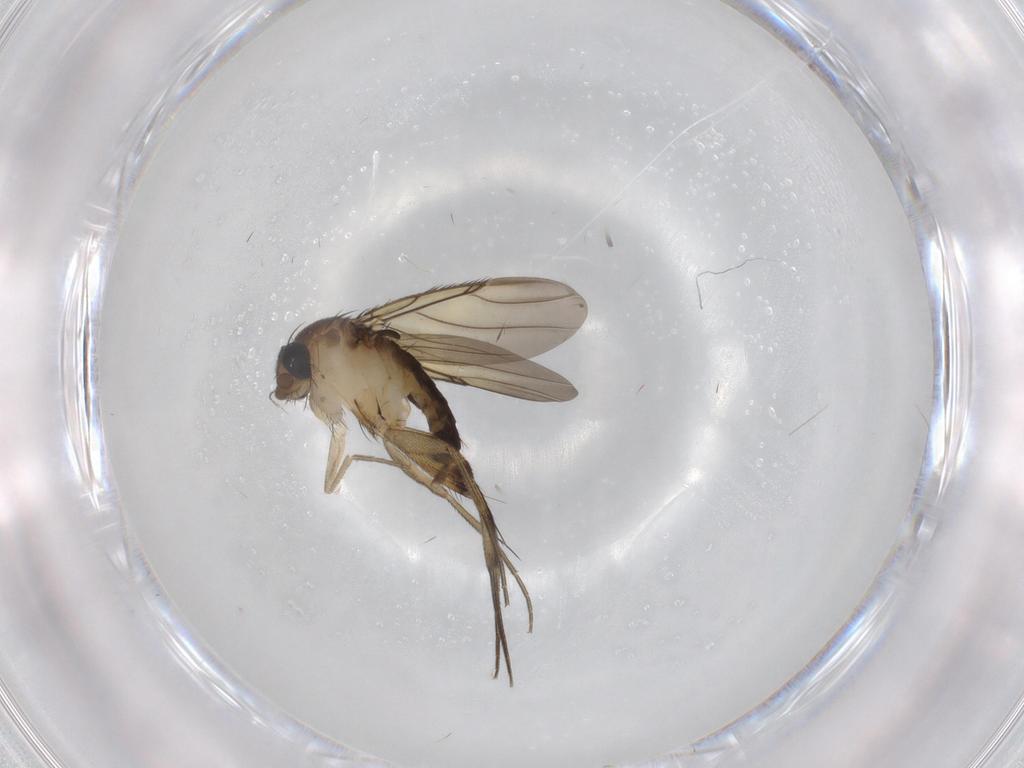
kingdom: Animalia
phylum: Arthropoda
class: Insecta
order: Diptera
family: Phoridae
